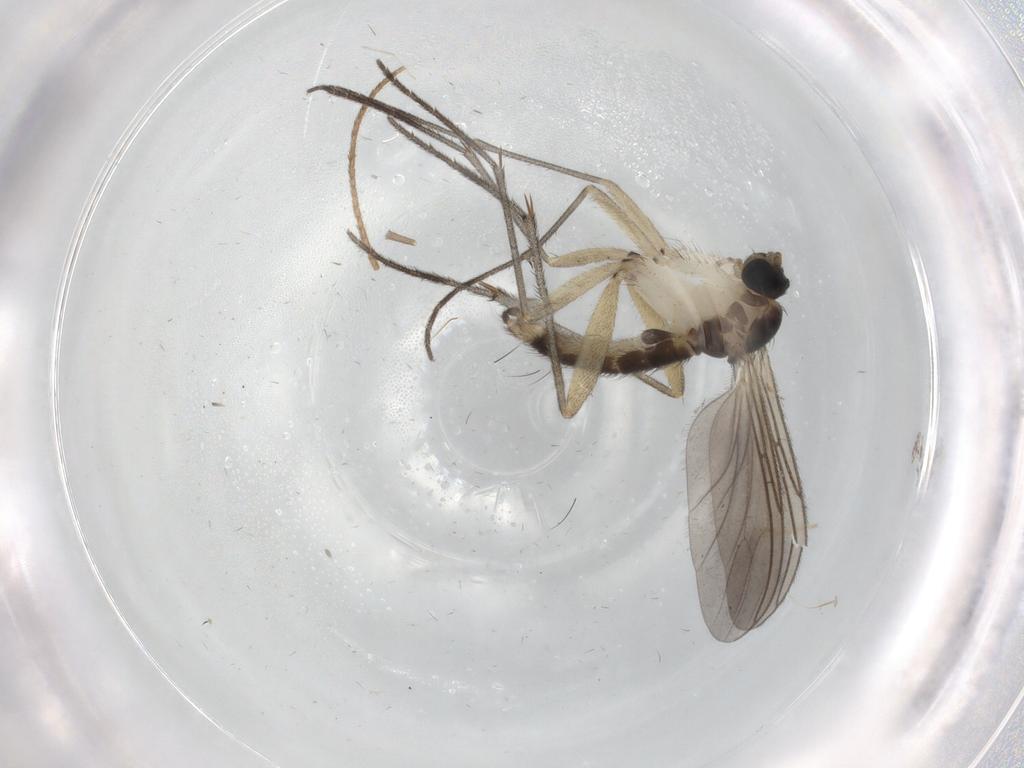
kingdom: Animalia
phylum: Arthropoda
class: Insecta
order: Diptera
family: Sciaridae
